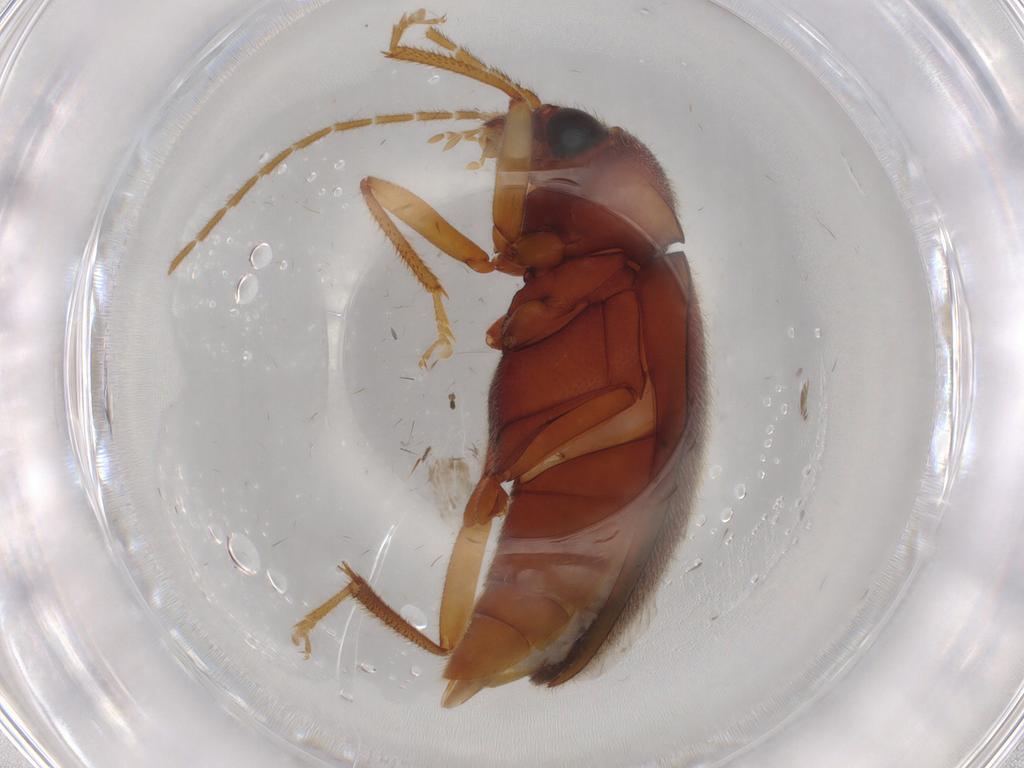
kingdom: Animalia
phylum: Arthropoda
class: Insecta
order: Coleoptera
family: Ptilodactylidae
